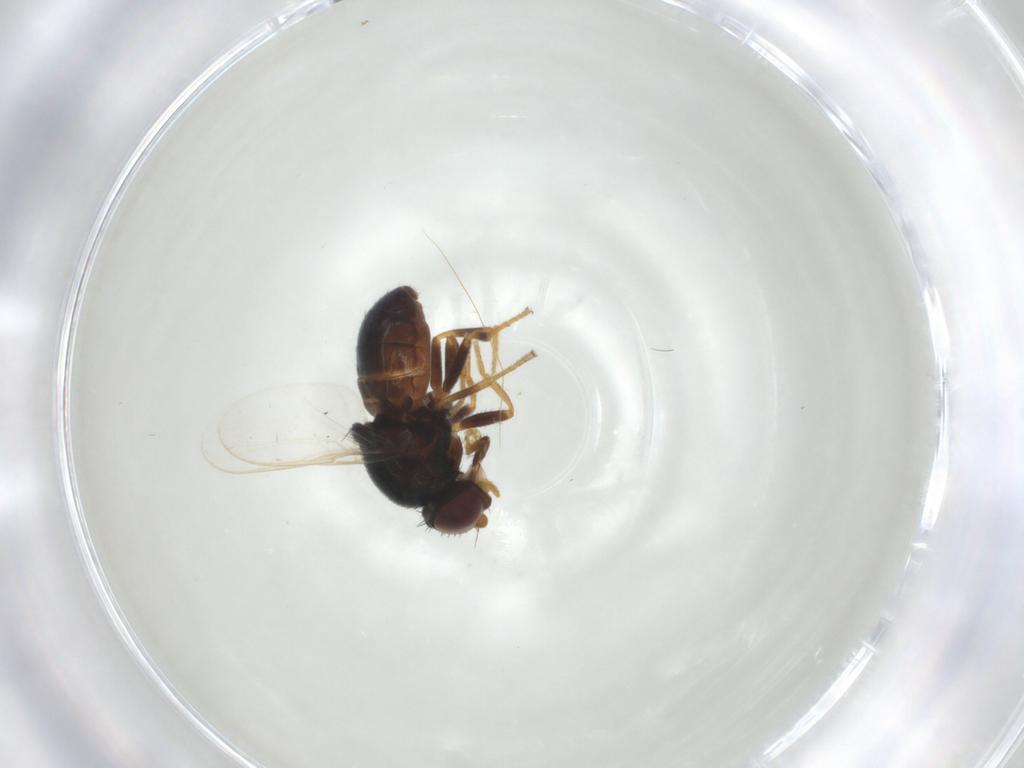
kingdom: Animalia
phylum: Arthropoda
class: Insecta
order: Diptera
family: Chloropidae
